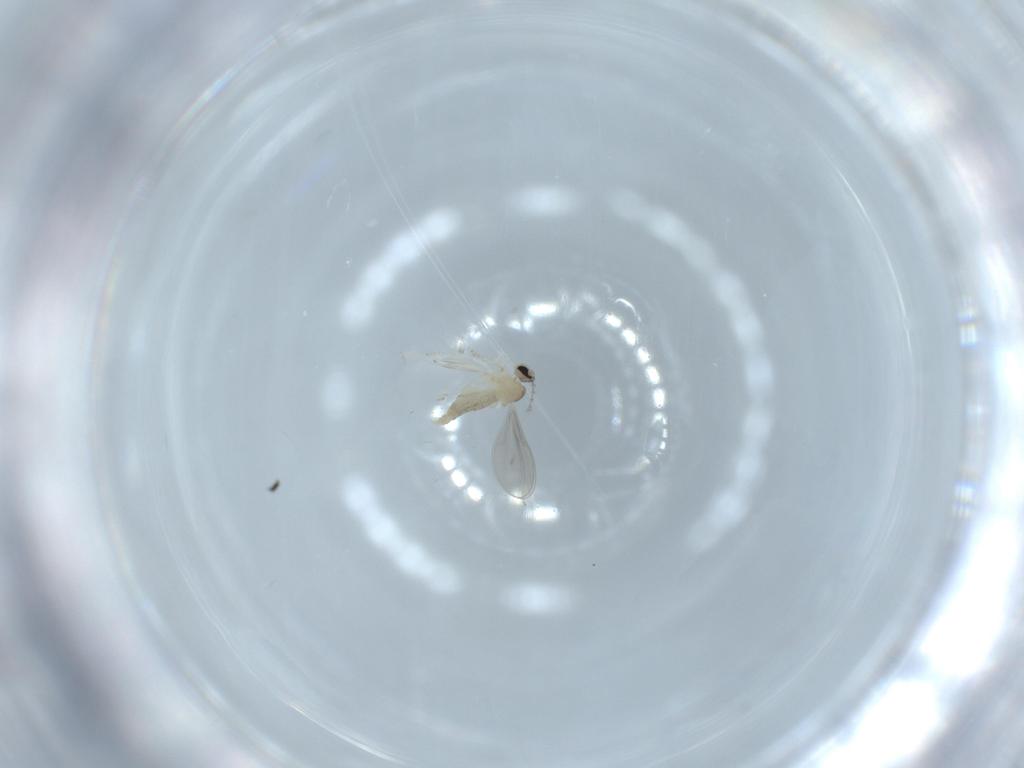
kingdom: Animalia
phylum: Arthropoda
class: Insecta
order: Diptera
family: Cecidomyiidae
